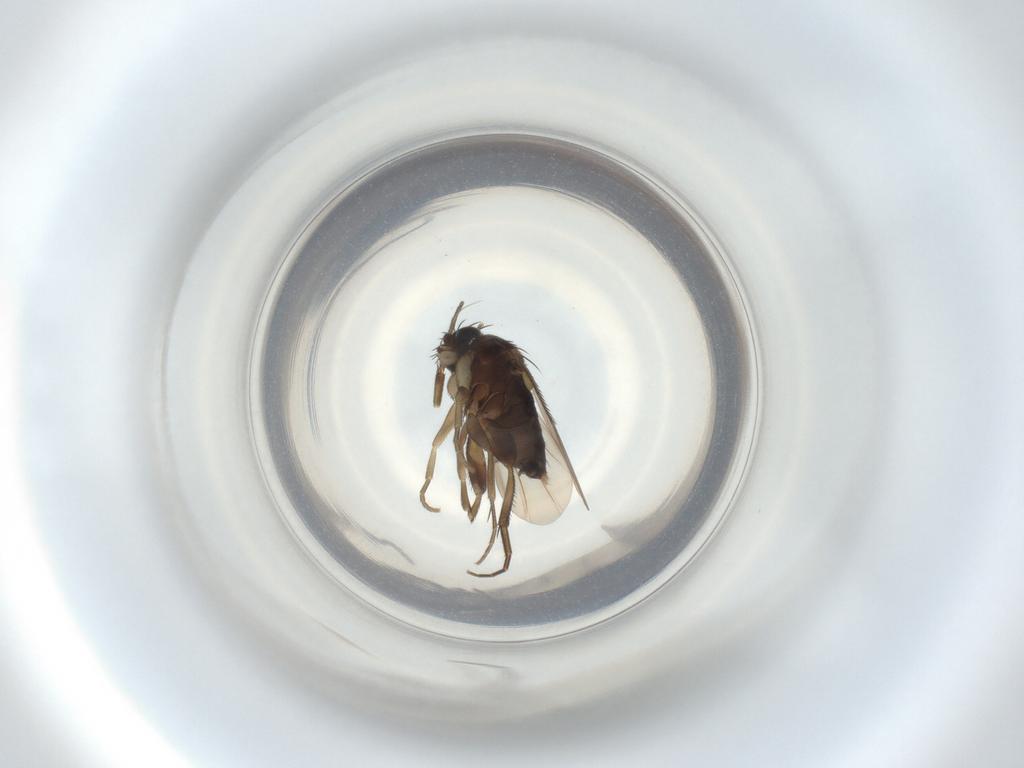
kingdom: Animalia
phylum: Arthropoda
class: Insecta
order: Diptera
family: Phoridae
